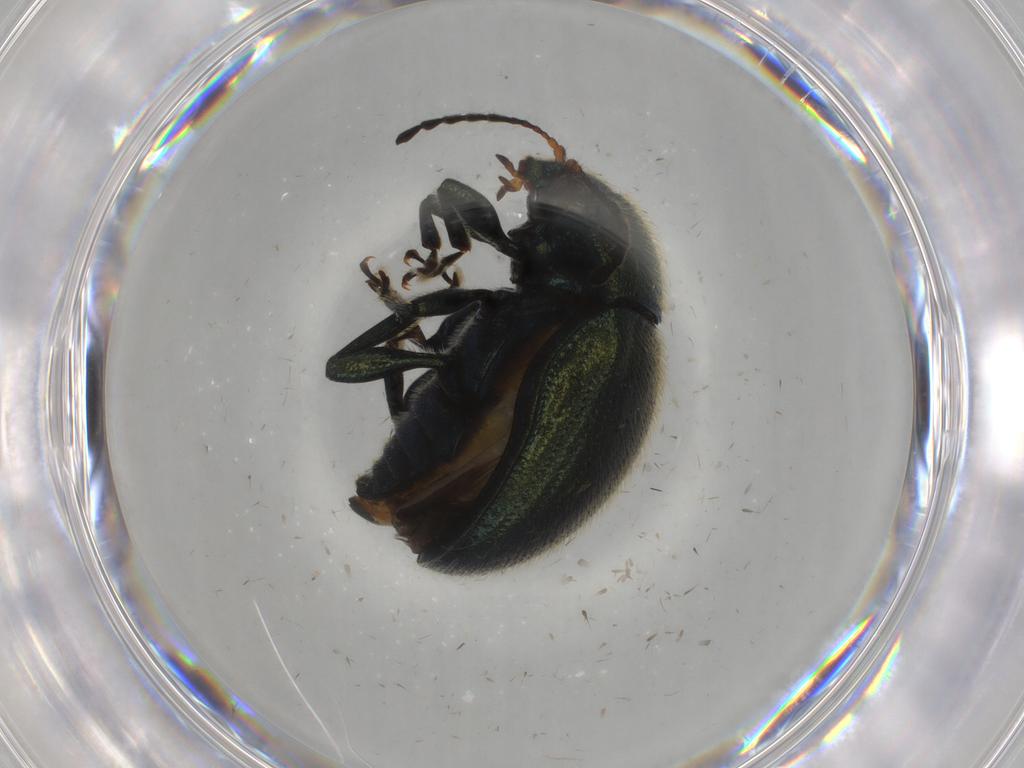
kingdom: Animalia
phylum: Arthropoda
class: Insecta
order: Coleoptera
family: Chrysomelidae
